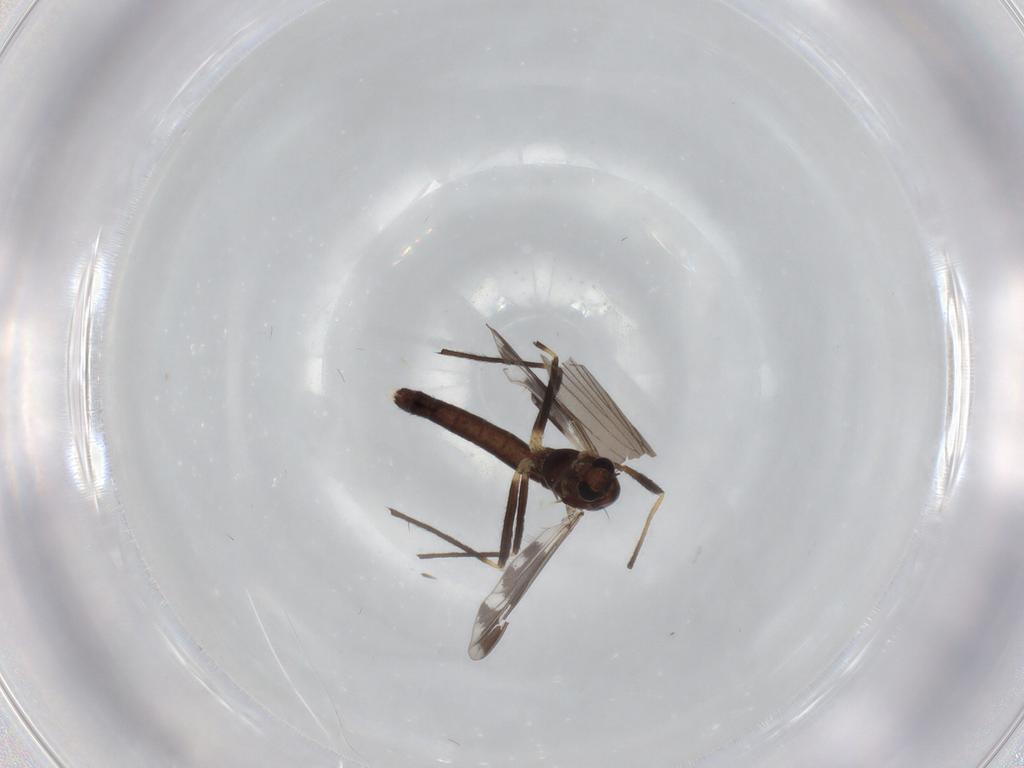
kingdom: Animalia
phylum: Arthropoda
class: Insecta
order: Diptera
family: Chironomidae
